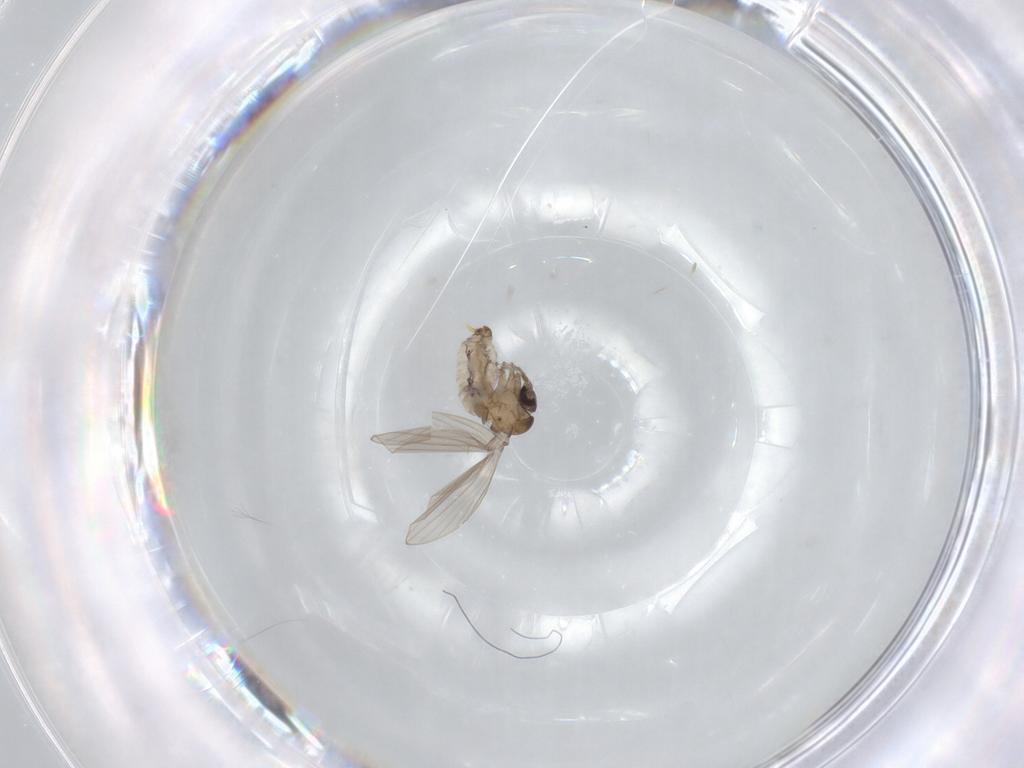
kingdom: Animalia
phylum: Arthropoda
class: Insecta
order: Diptera
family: Psychodidae
